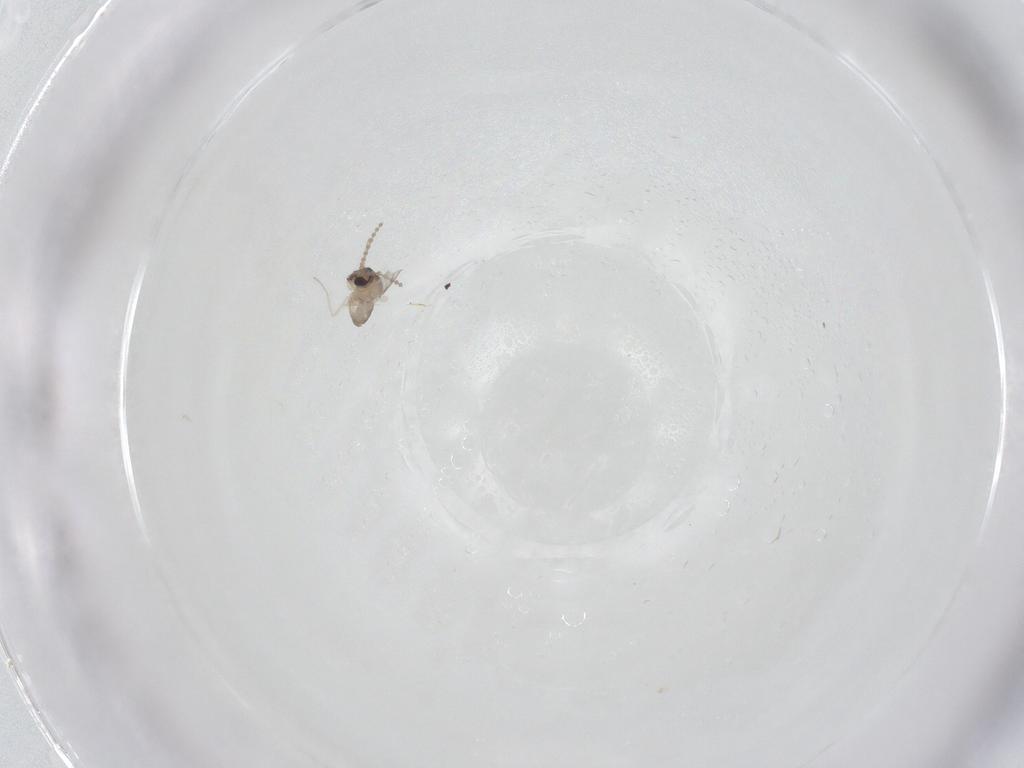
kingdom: Animalia
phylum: Arthropoda
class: Insecta
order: Diptera
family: Cecidomyiidae
